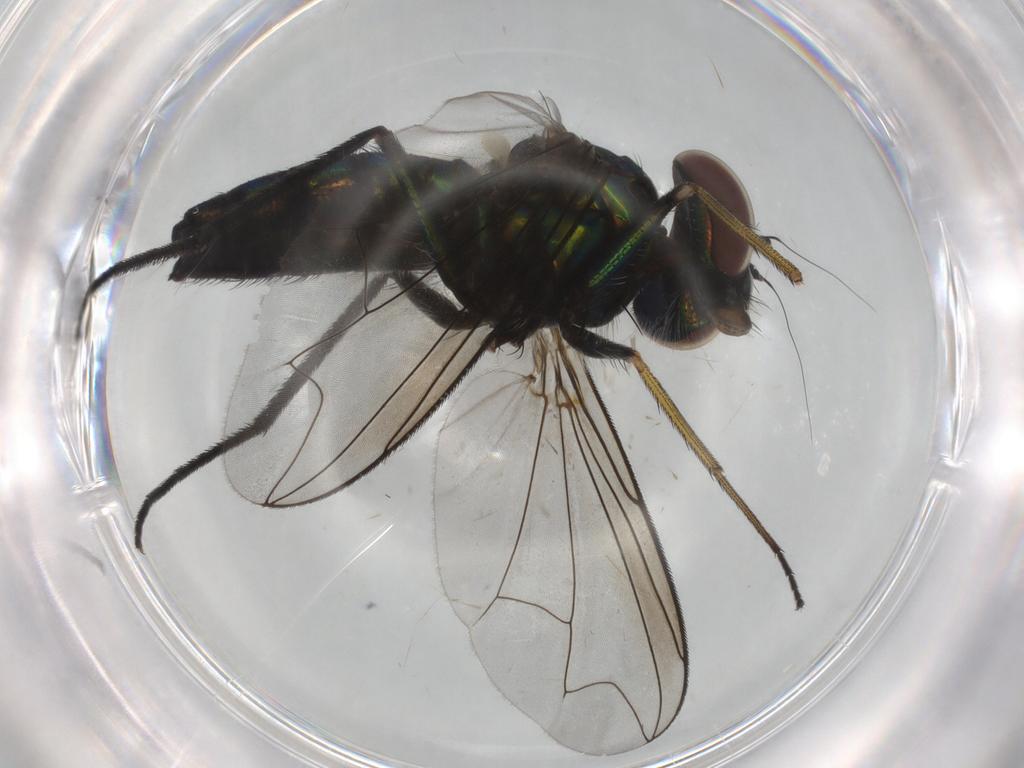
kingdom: Animalia
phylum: Arthropoda
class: Insecta
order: Diptera
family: Dolichopodidae
